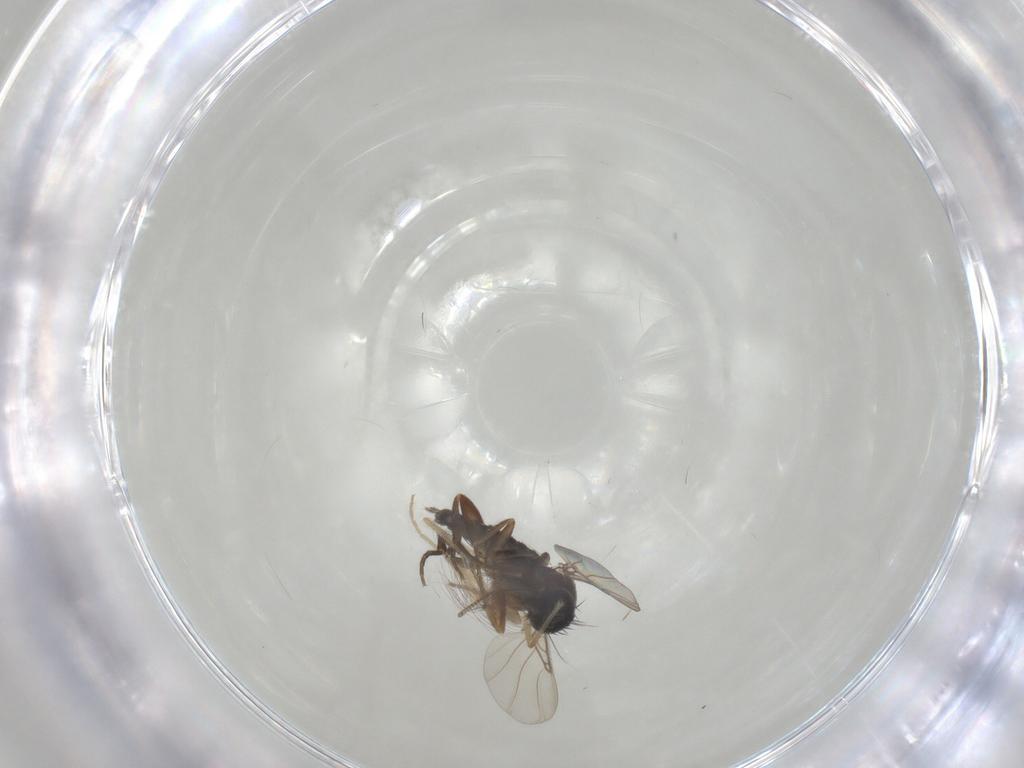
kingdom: Animalia
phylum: Arthropoda
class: Insecta
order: Diptera
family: Phoridae
